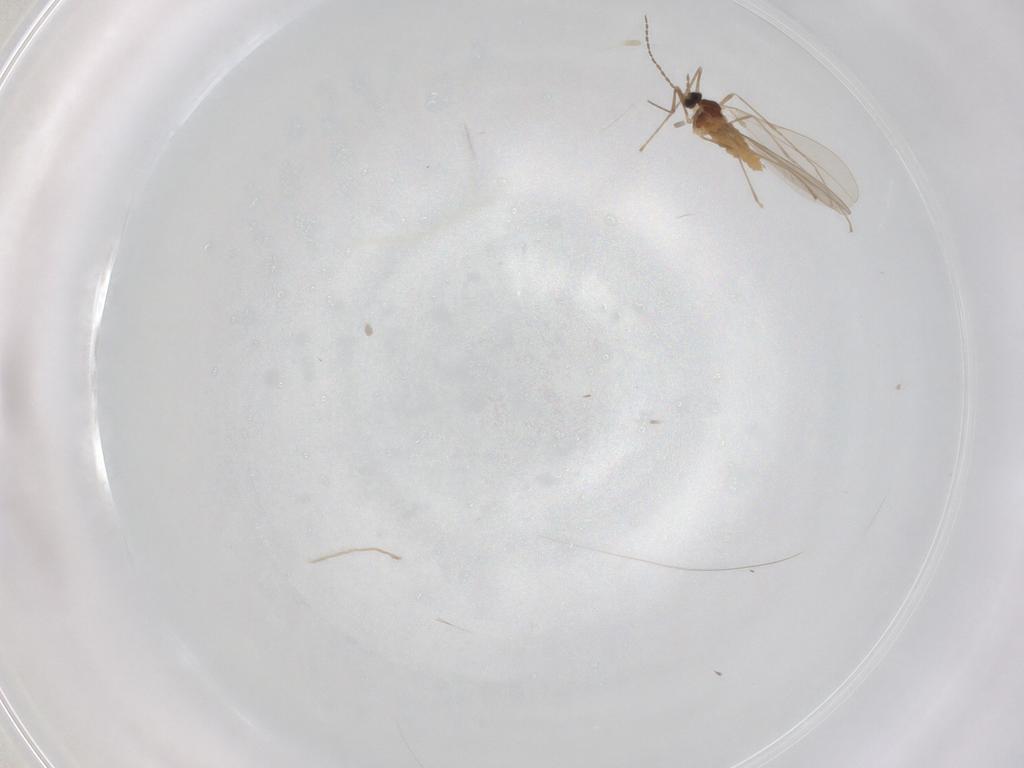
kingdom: Animalia
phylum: Arthropoda
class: Insecta
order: Diptera
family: Cecidomyiidae
